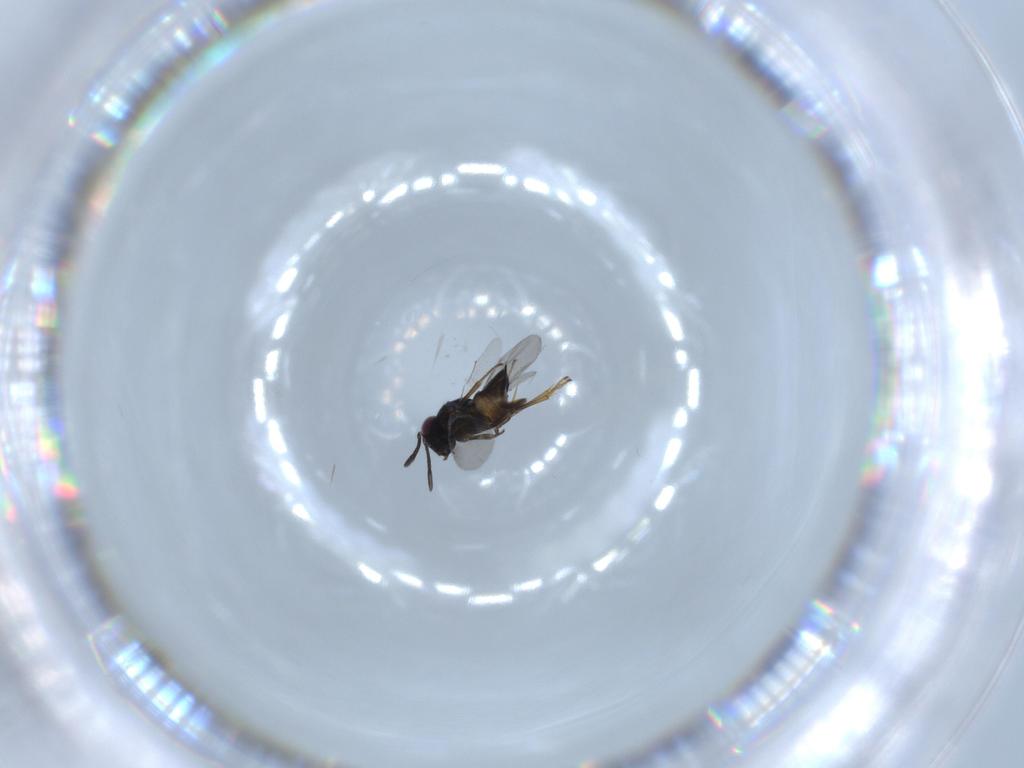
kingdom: Animalia
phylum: Arthropoda
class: Insecta
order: Hymenoptera
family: Encyrtidae
